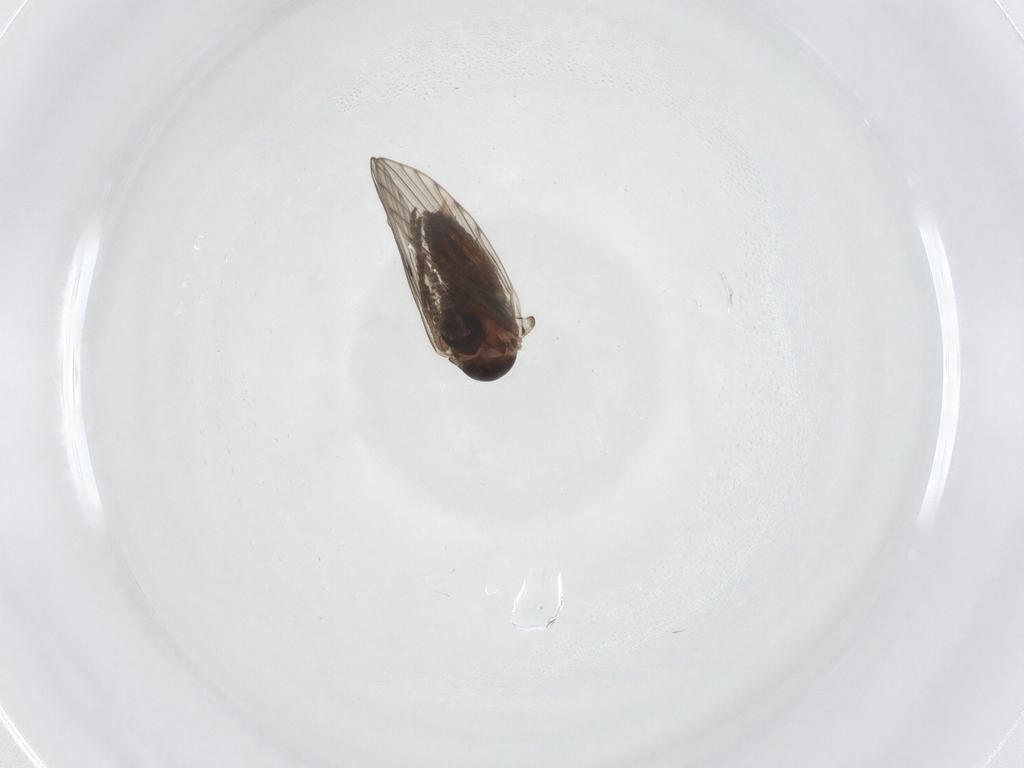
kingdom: Animalia
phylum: Arthropoda
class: Insecta
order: Diptera
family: Psychodidae
